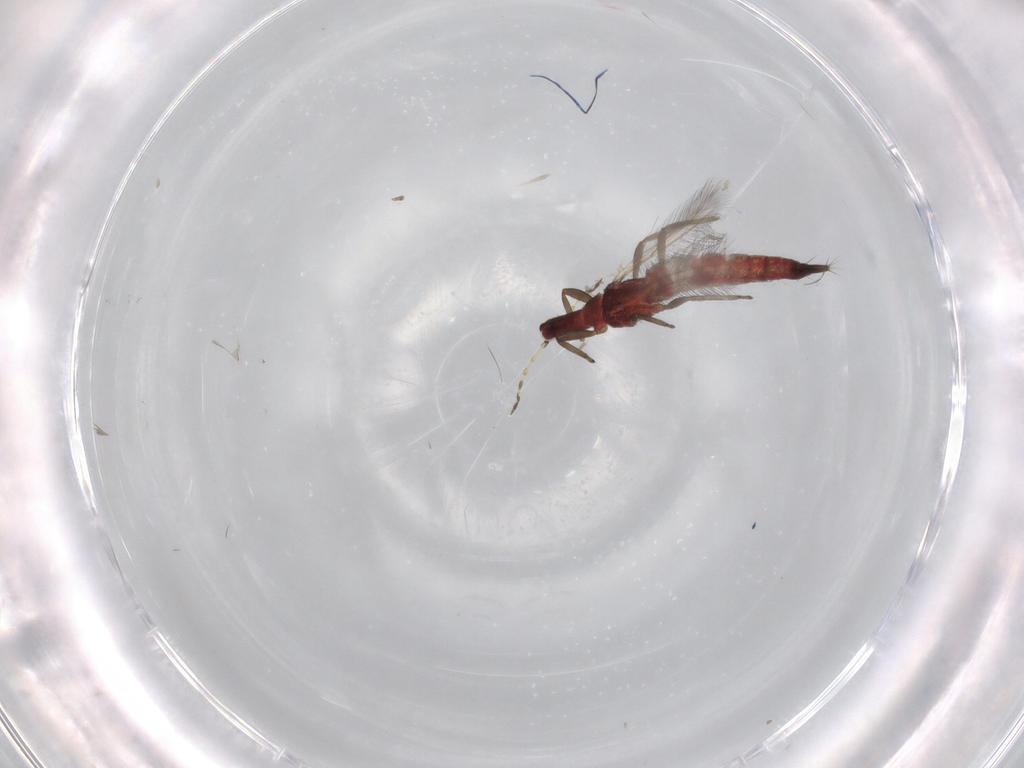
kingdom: Animalia
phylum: Arthropoda
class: Insecta
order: Thysanoptera
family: Phlaeothripidae
